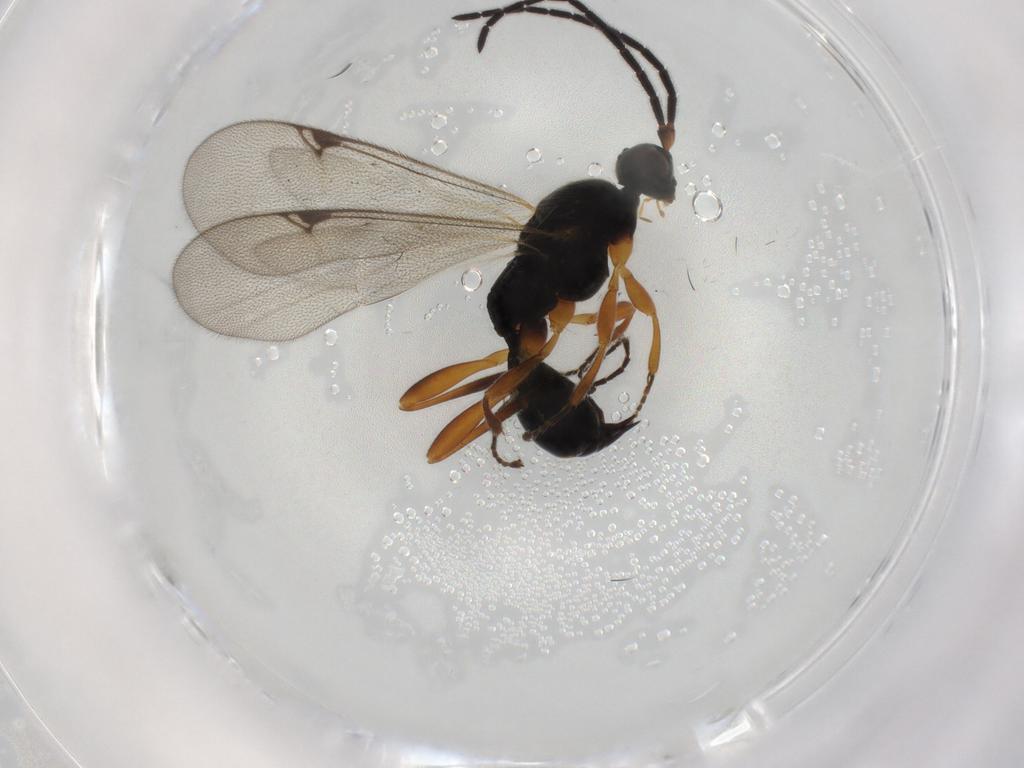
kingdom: Animalia
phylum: Arthropoda
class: Insecta
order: Hymenoptera
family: Proctotrupidae
